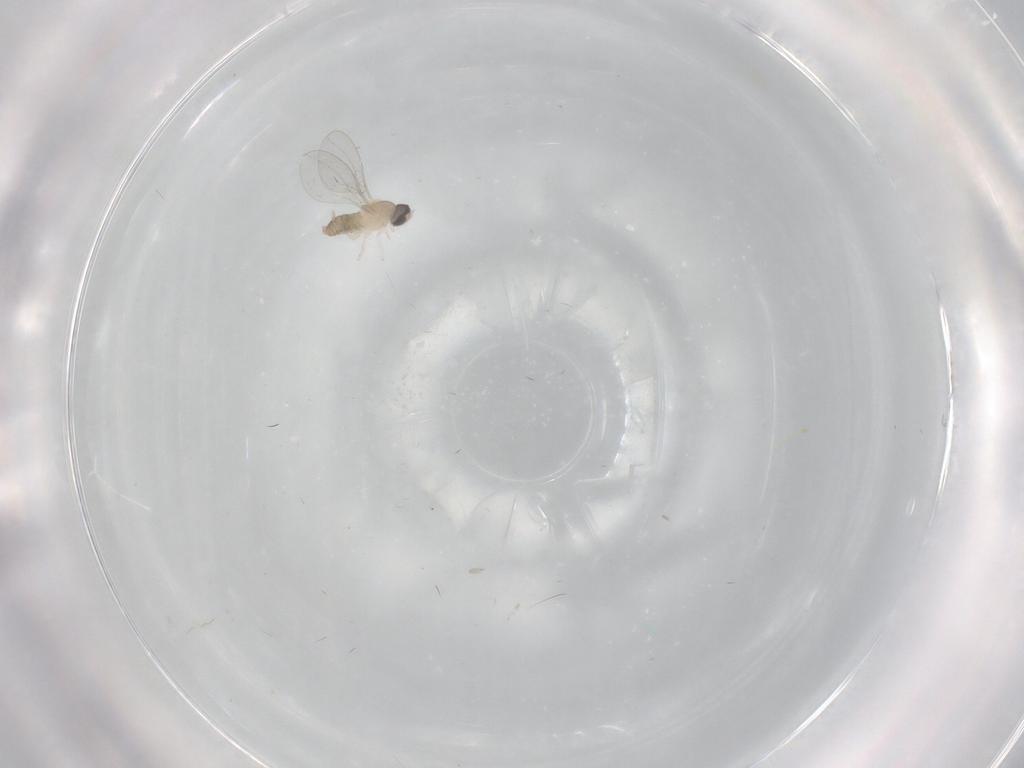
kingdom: Animalia
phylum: Arthropoda
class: Insecta
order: Diptera
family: Cecidomyiidae
